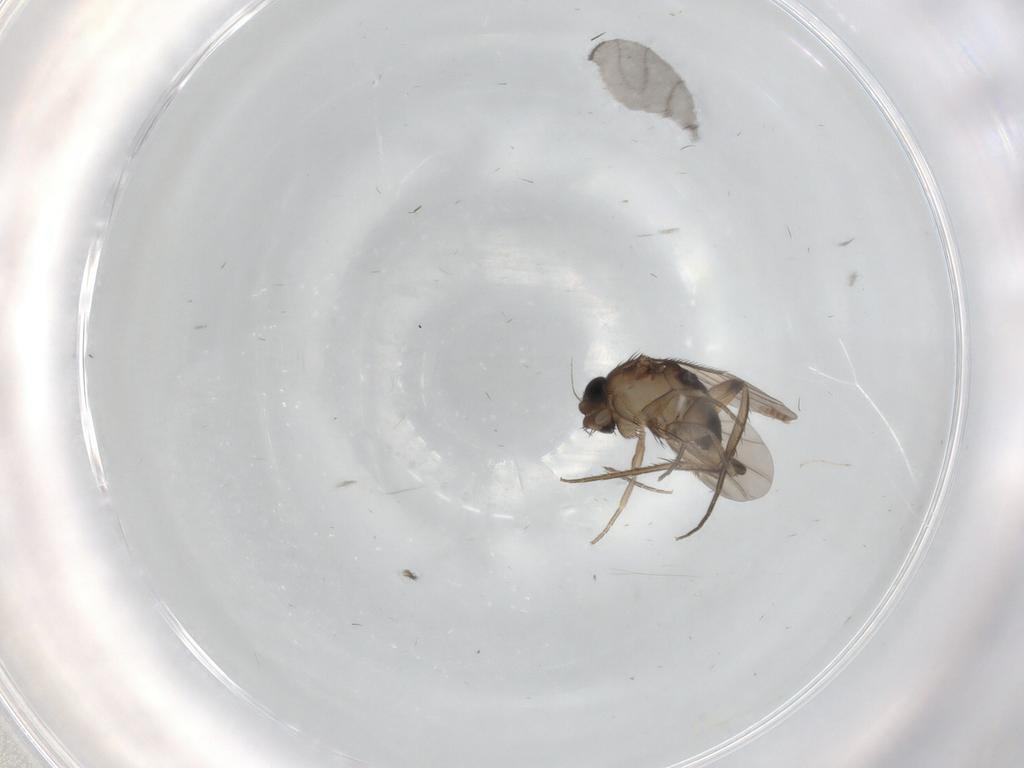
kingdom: Animalia
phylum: Arthropoda
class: Insecta
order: Diptera
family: Phoridae
